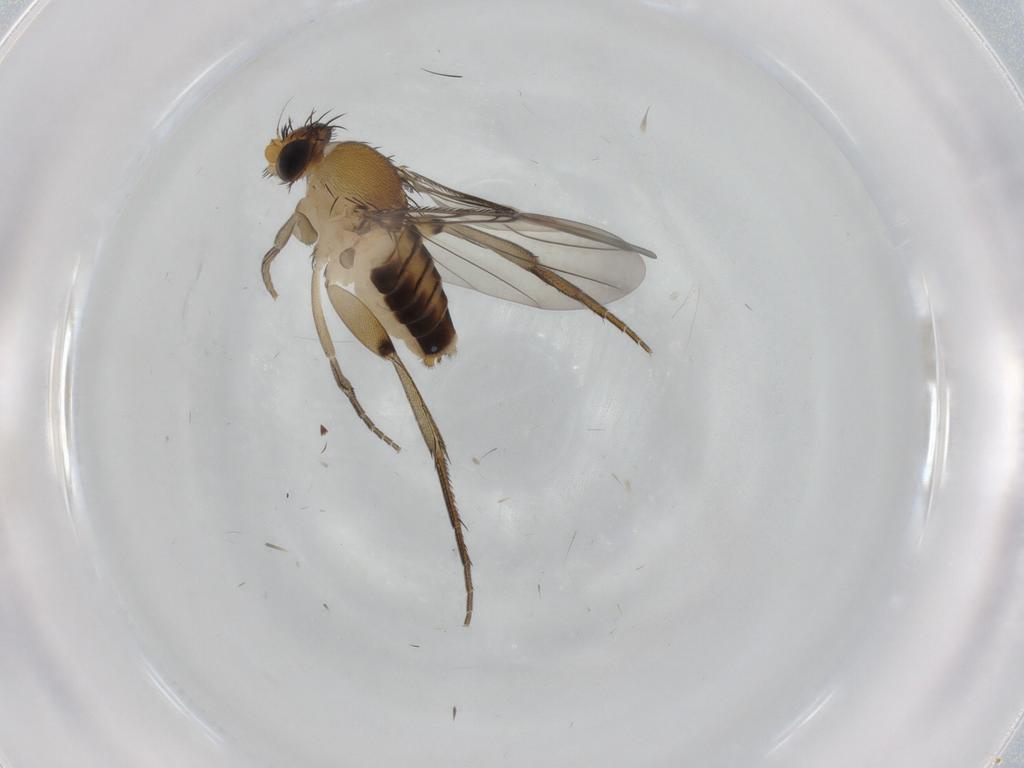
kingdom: Animalia
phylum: Arthropoda
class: Insecta
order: Diptera
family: Phoridae
